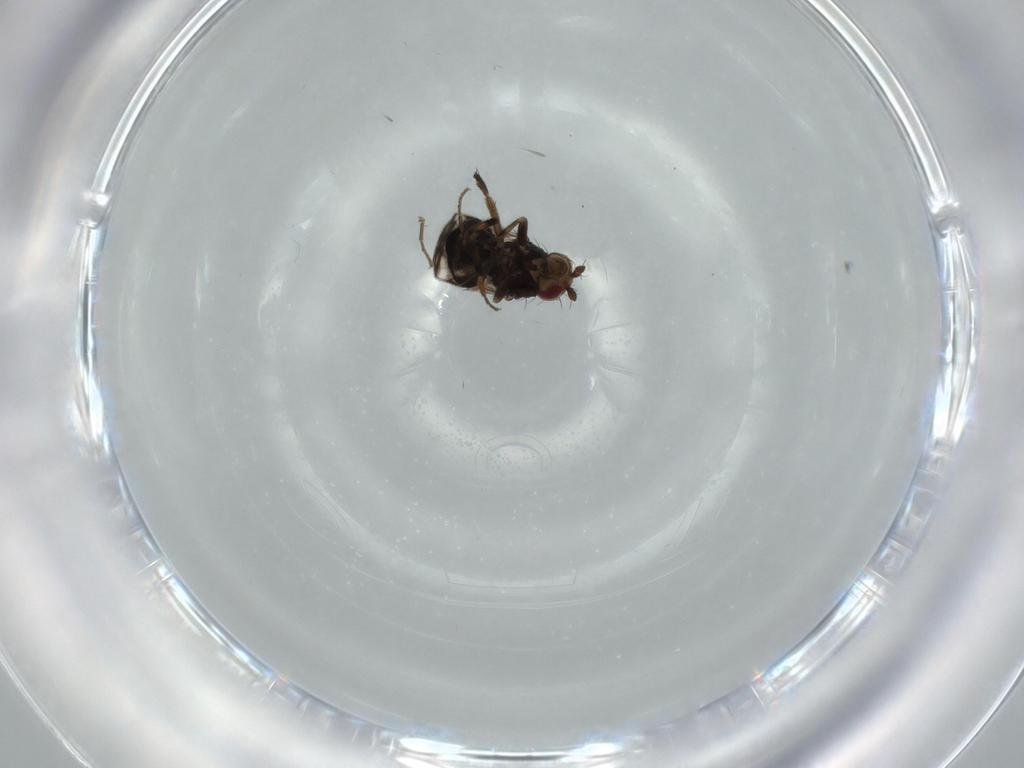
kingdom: Animalia
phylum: Arthropoda
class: Insecta
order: Diptera
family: Sphaeroceridae
